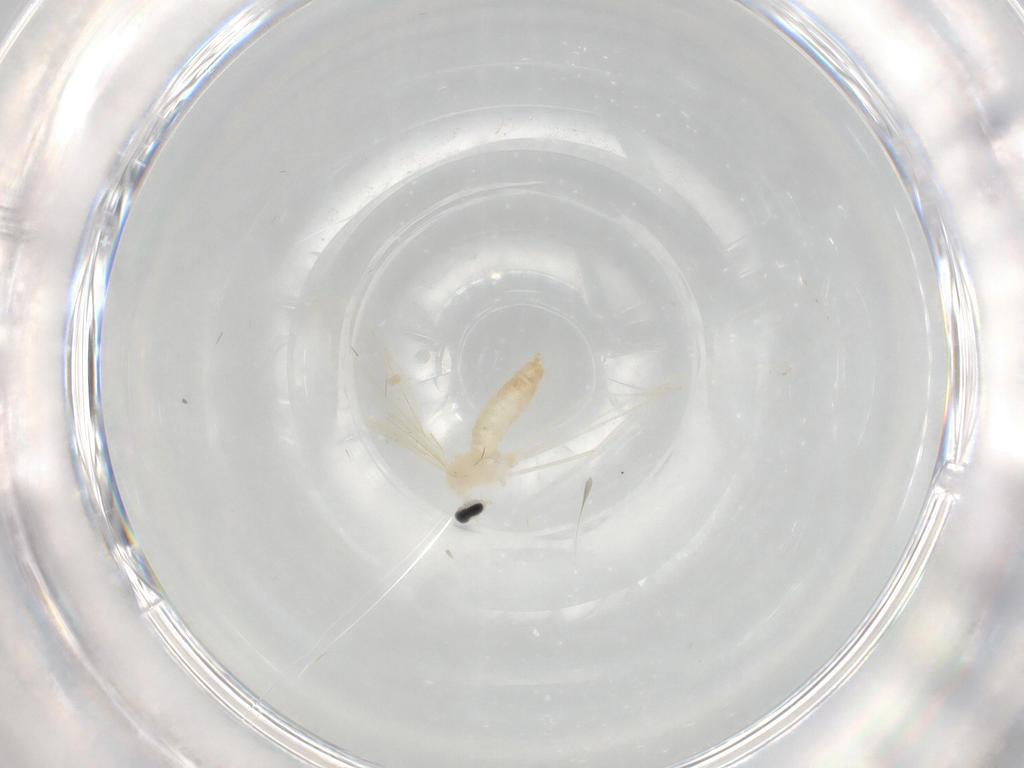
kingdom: Animalia
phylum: Arthropoda
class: Insecta
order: Diptera
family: Cecidomyiidae
